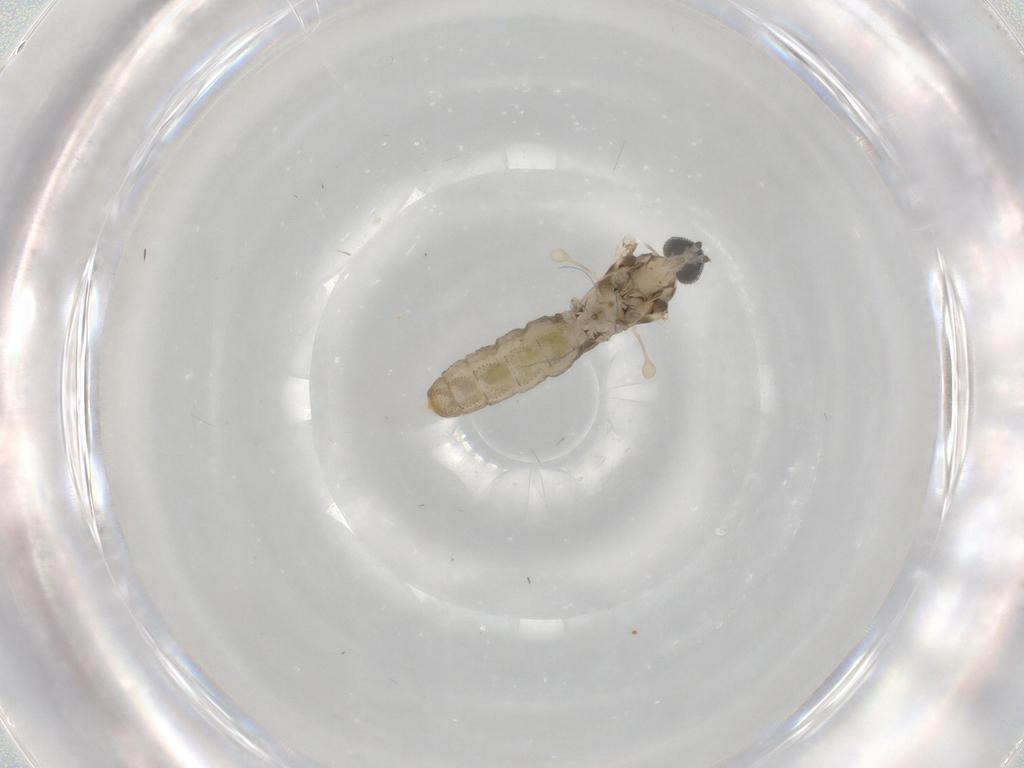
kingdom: Animalia
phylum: Arthropoda
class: Insecta
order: Diptera
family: Cecidomyiidae
